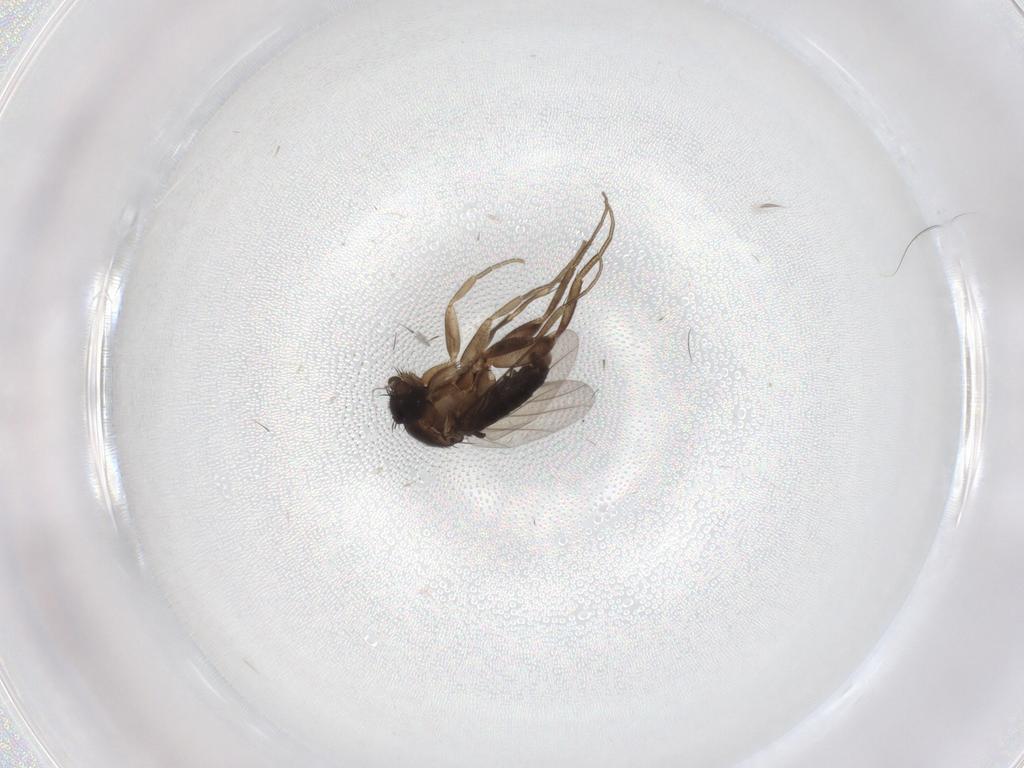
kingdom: Animalia
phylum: Arthropoda
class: Insecta
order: Diptera
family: Phoridae
